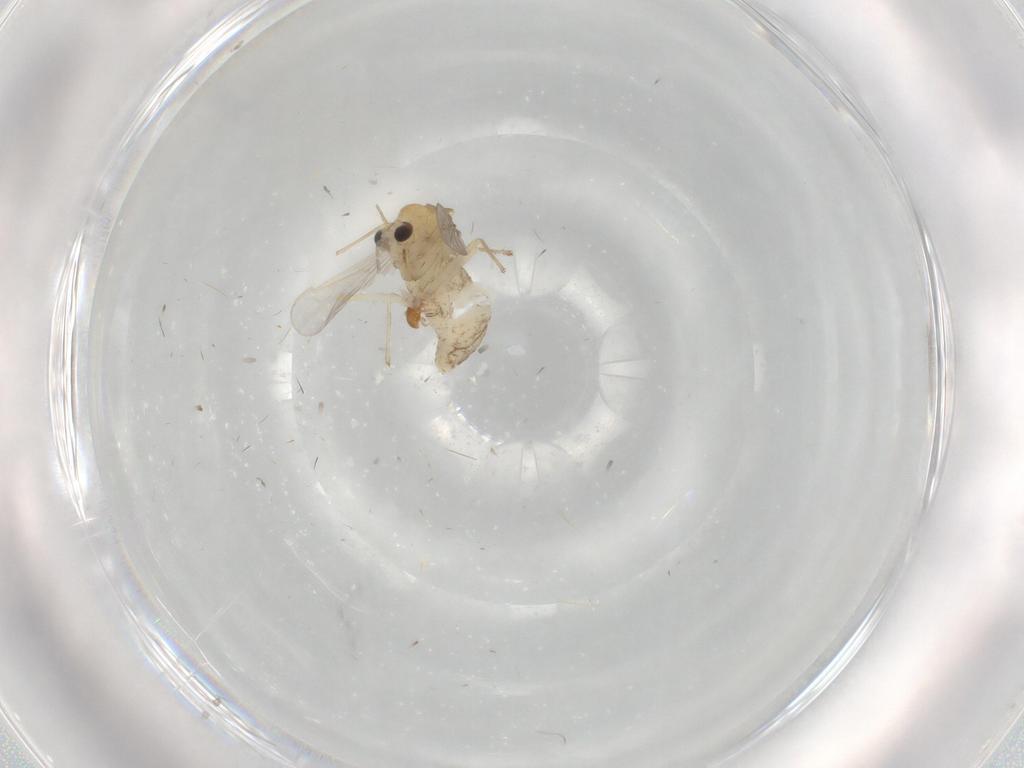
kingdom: Animalia
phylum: Arthropoda
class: Insecta
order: Diptera
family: Chironomidae
